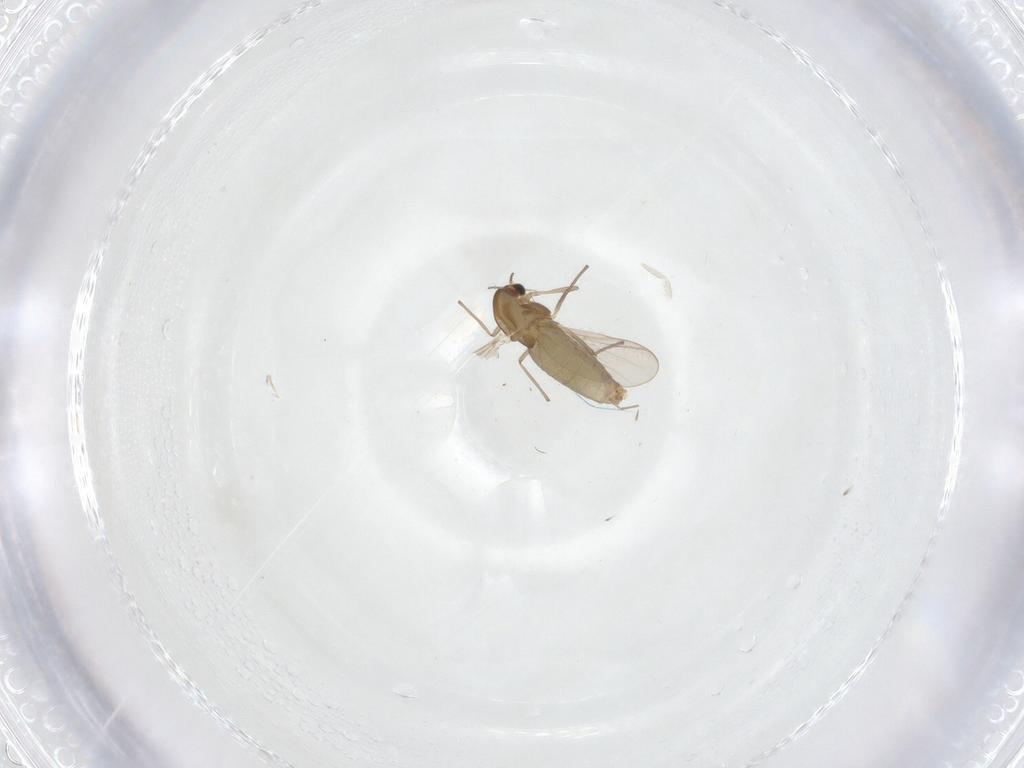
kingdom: Animalia
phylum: Arthropoda
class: Insecta
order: Diptera
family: Chironomidae
